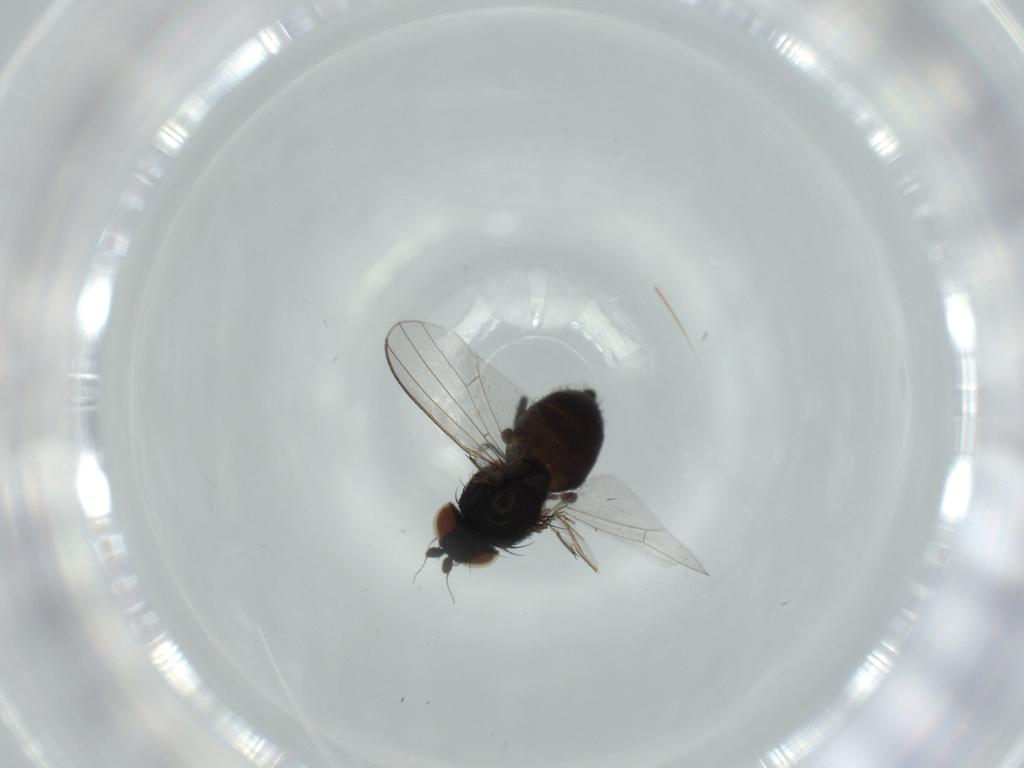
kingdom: Animalia
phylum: Arthropoda
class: Insecta
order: Diptera
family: Milichiidae
